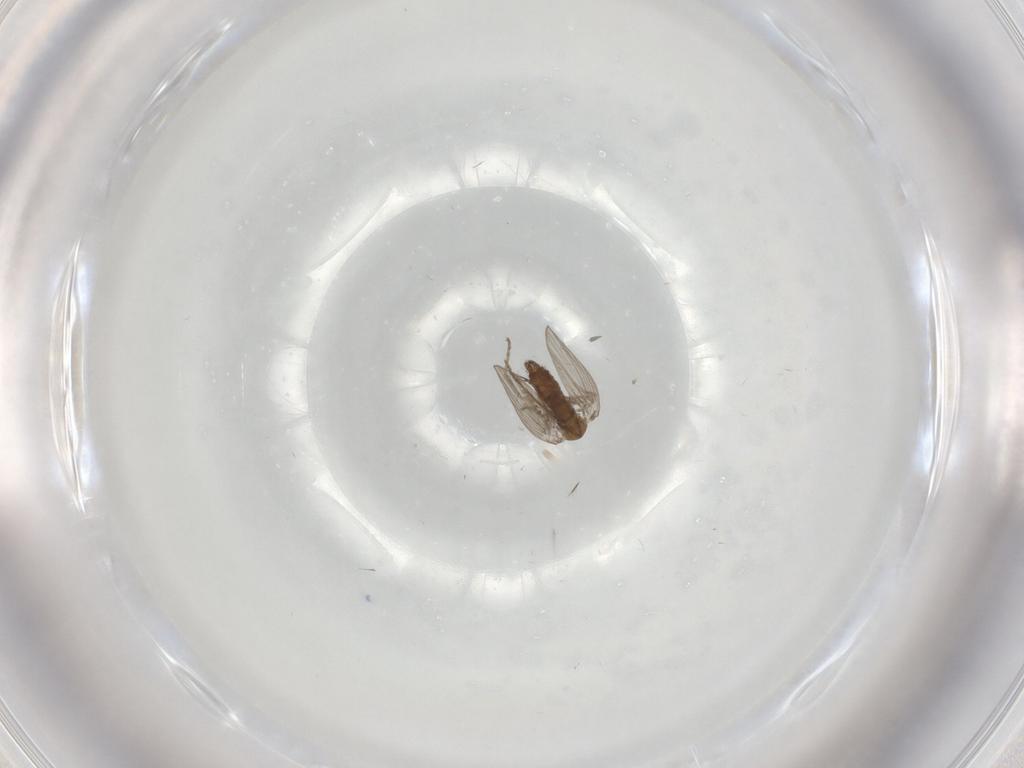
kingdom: Animalia
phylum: Arthropoda
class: Insecta
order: Diptera
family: Psychodidae
